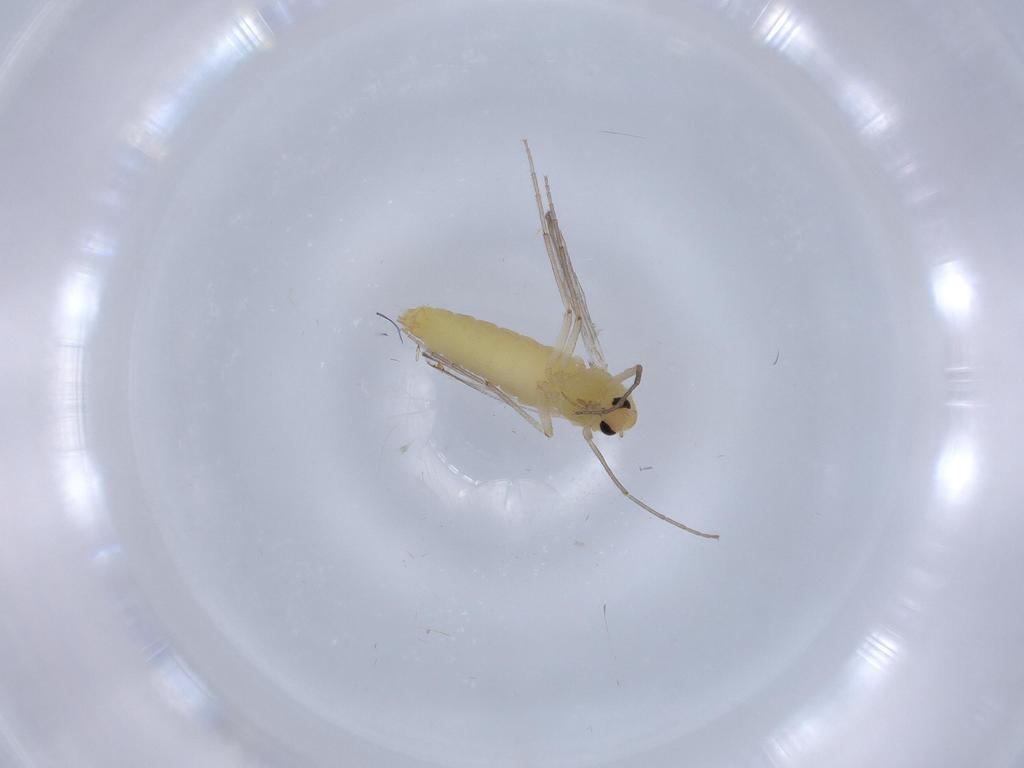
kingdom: Animalia
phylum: Arthropoda
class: Insecta
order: Diptera
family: Chironomidae
